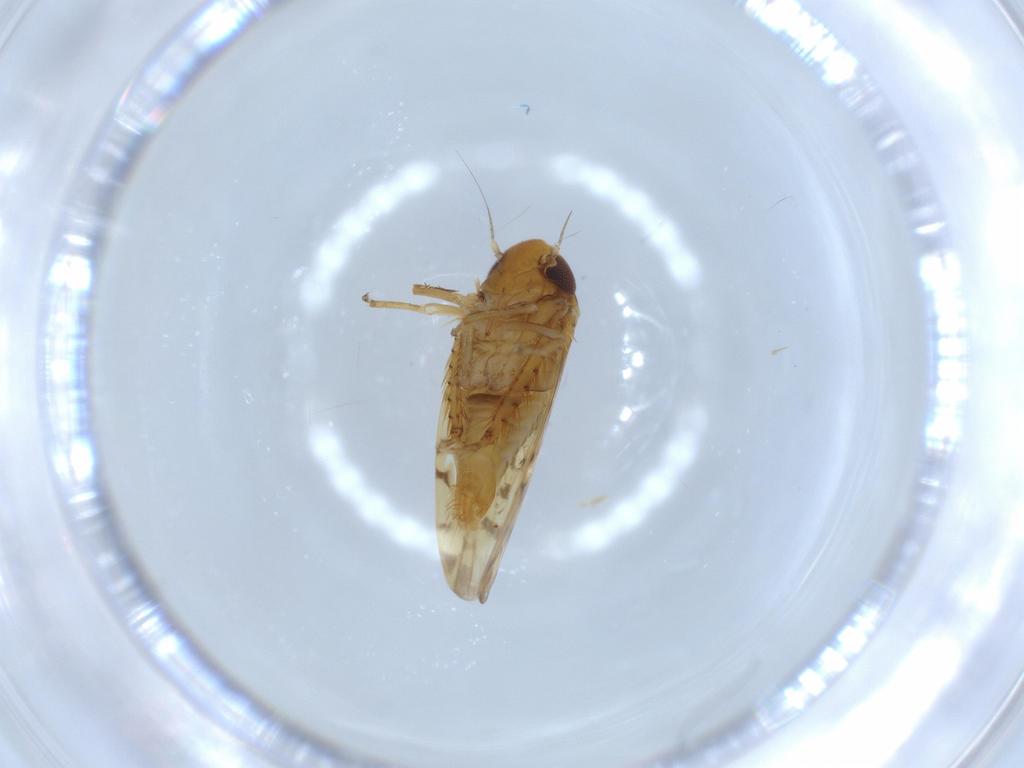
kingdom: Animalia
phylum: Arthropoda
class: Insecta
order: Hemiptera
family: Cicadellidae
